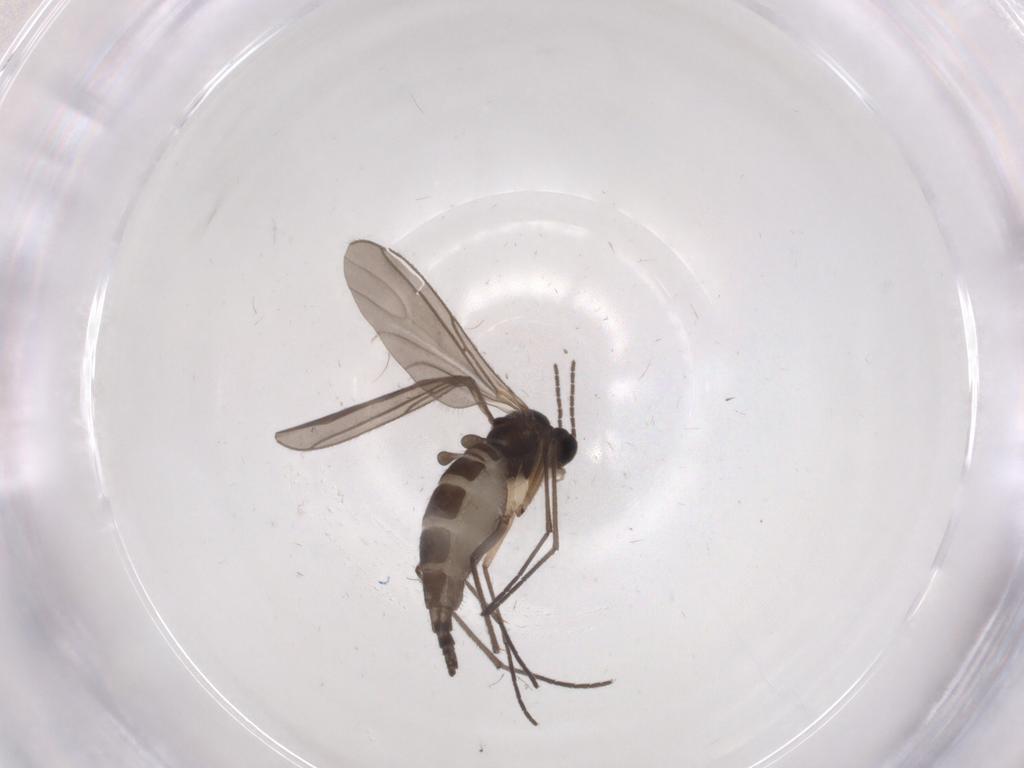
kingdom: Animalia
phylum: Arthropoda
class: Insecta
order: Diptera
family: Sciaridae
